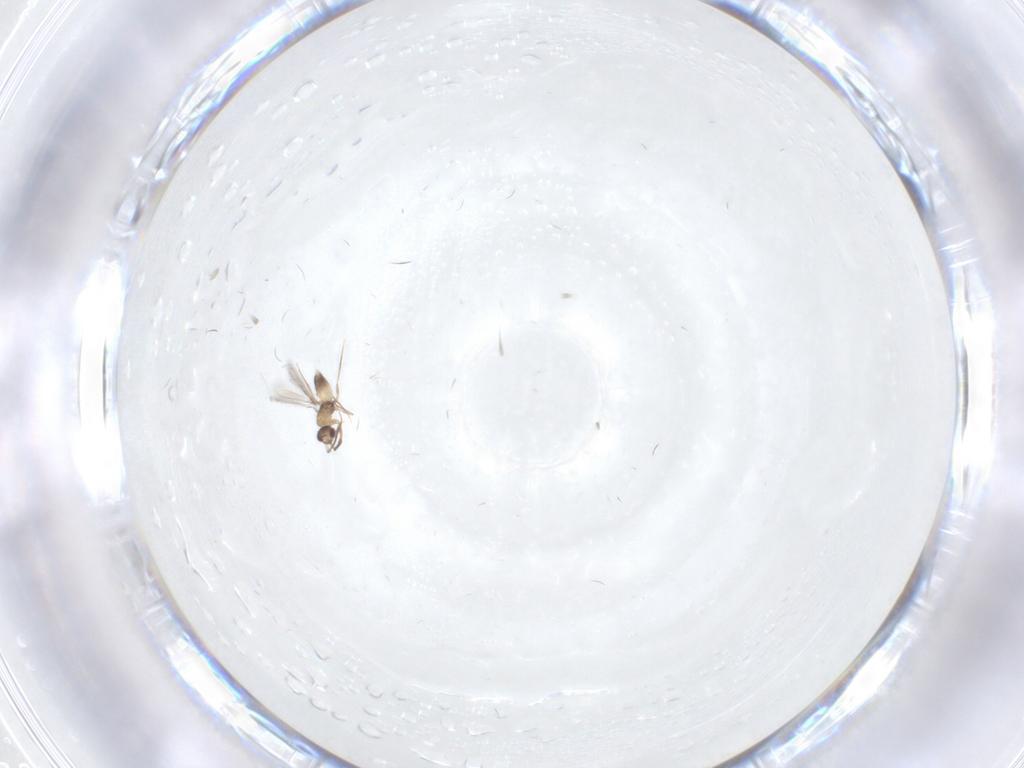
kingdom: Animalia
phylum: Arthropoda
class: Insecta
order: Hymenoptera
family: Mymaridae
